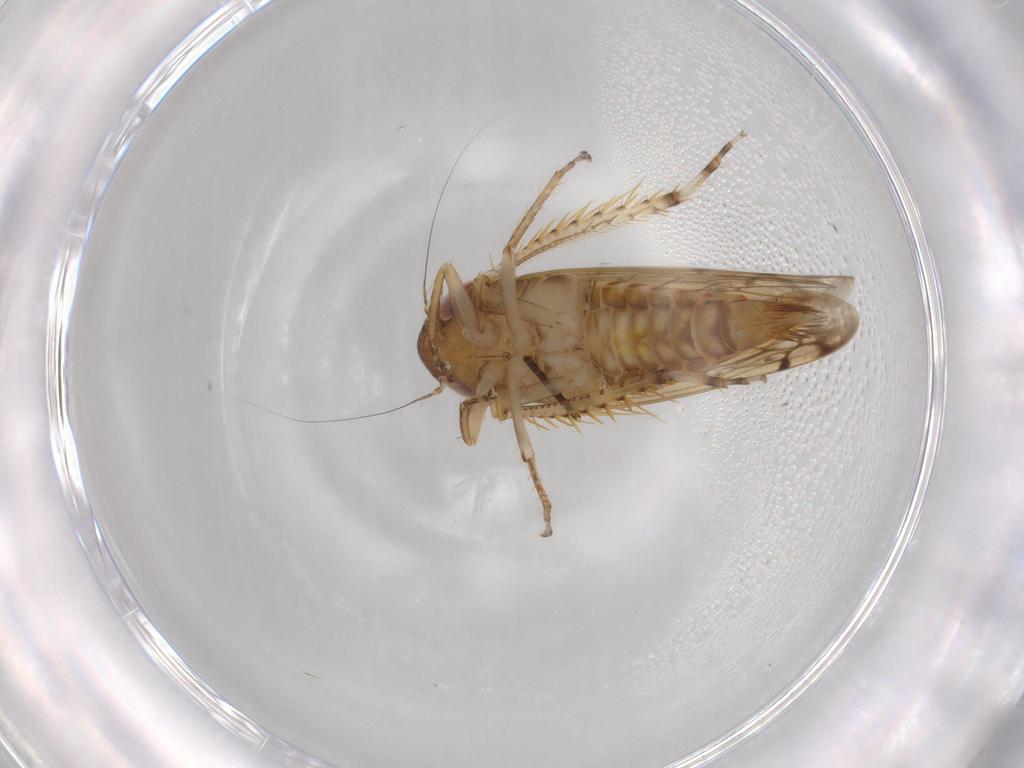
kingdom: Animalia
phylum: Arthropoda
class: Insecta
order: Hemiptera
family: Cicadellidae
